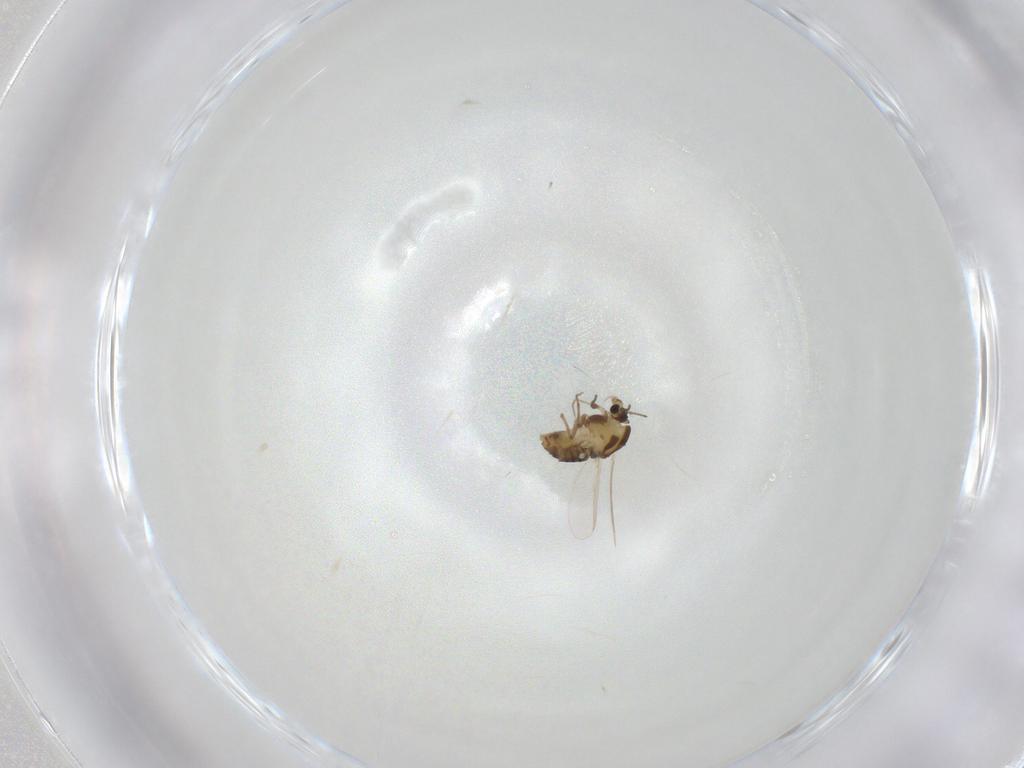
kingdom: Animalia
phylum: Arthropoda
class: Insecta
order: Diptera
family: Chironomidae
